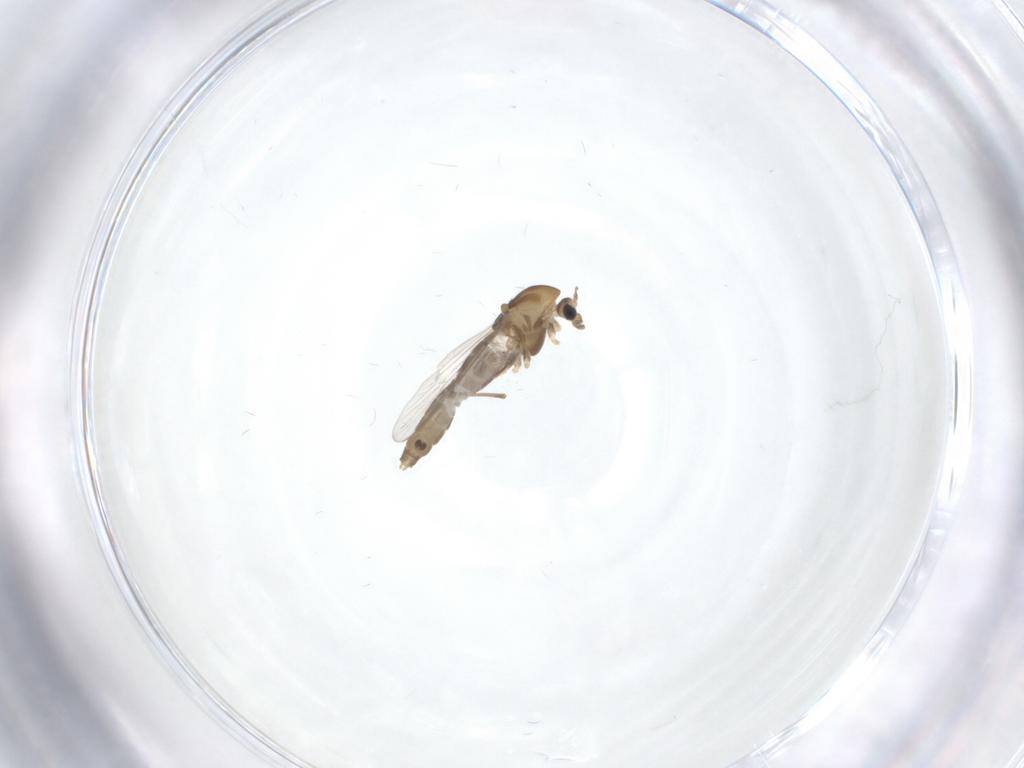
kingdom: Animalia
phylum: Arthropoda
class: Insecta
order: Diptera
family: Chironomidae
